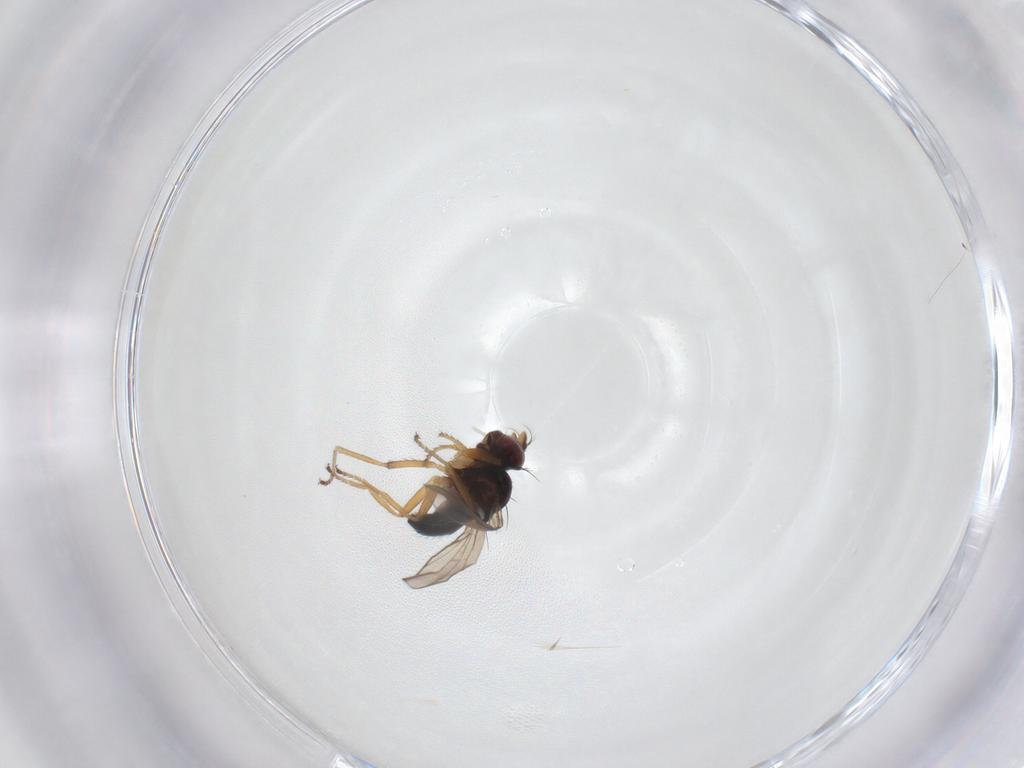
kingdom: Animalia
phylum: Arthropoda
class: Insecta
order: Diptera
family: Ephydridae
